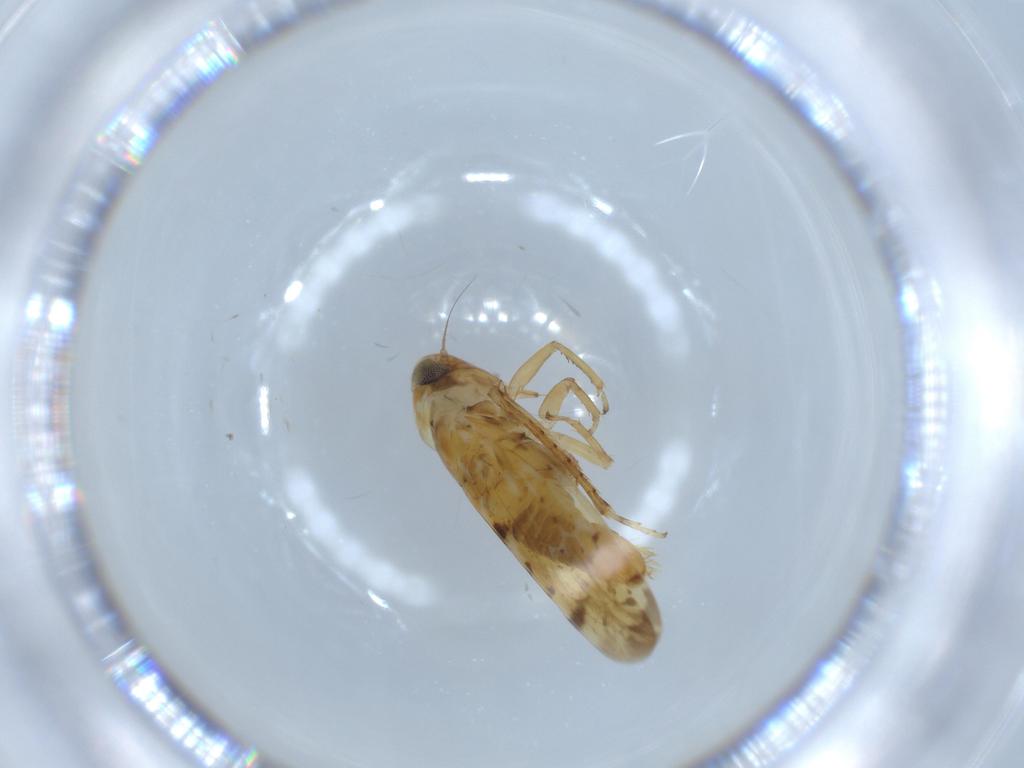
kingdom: Animalia
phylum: Arthropoda
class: Insecta
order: Hemiptera
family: Cicadellidae
